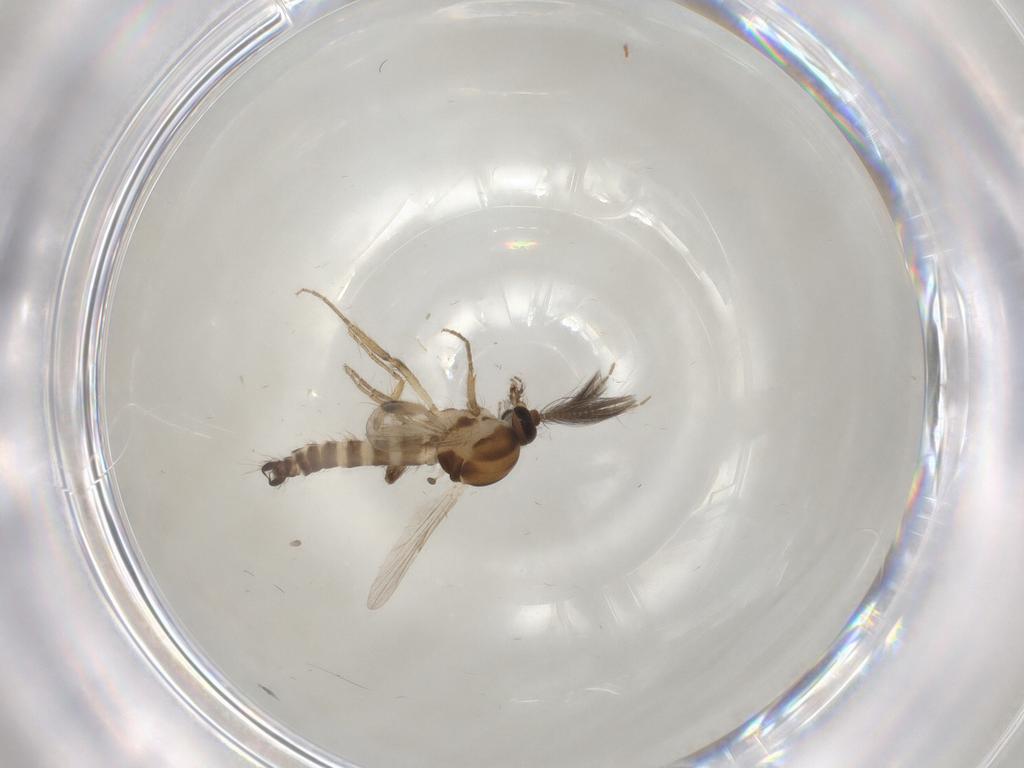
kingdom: Animalia
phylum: Arthropoda
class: Insecta
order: Diptera
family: Ceratopogonidae
